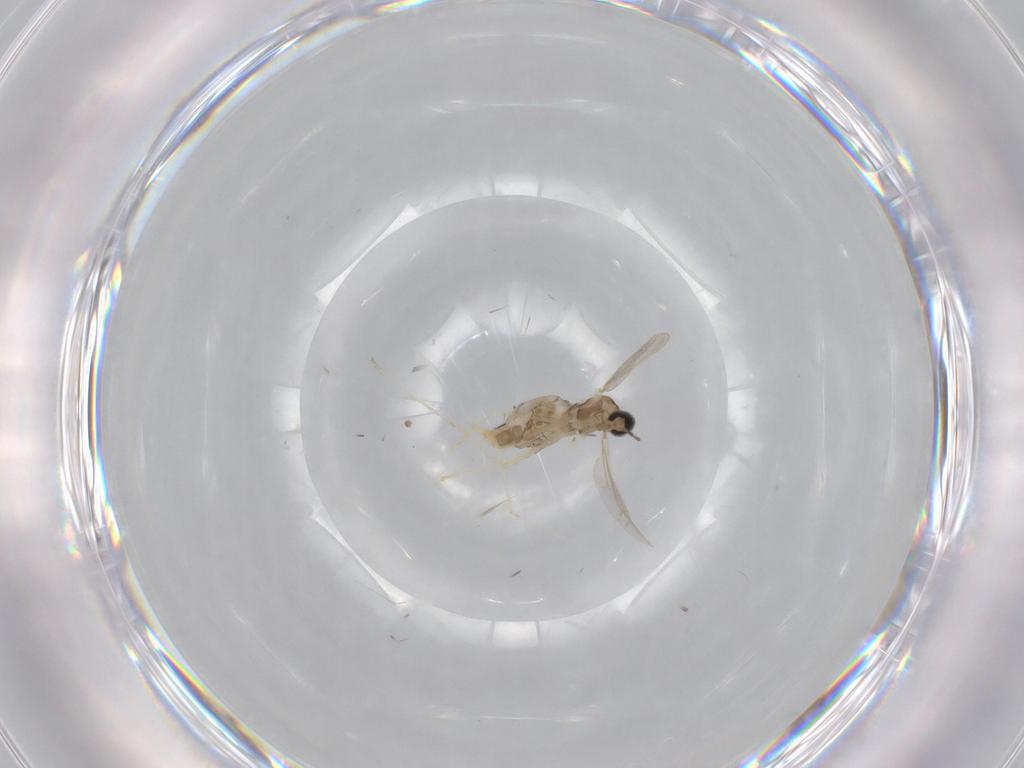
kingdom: Animalia
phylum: Arthropoda
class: Insecta
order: Diptera
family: Cecidomyiidae
